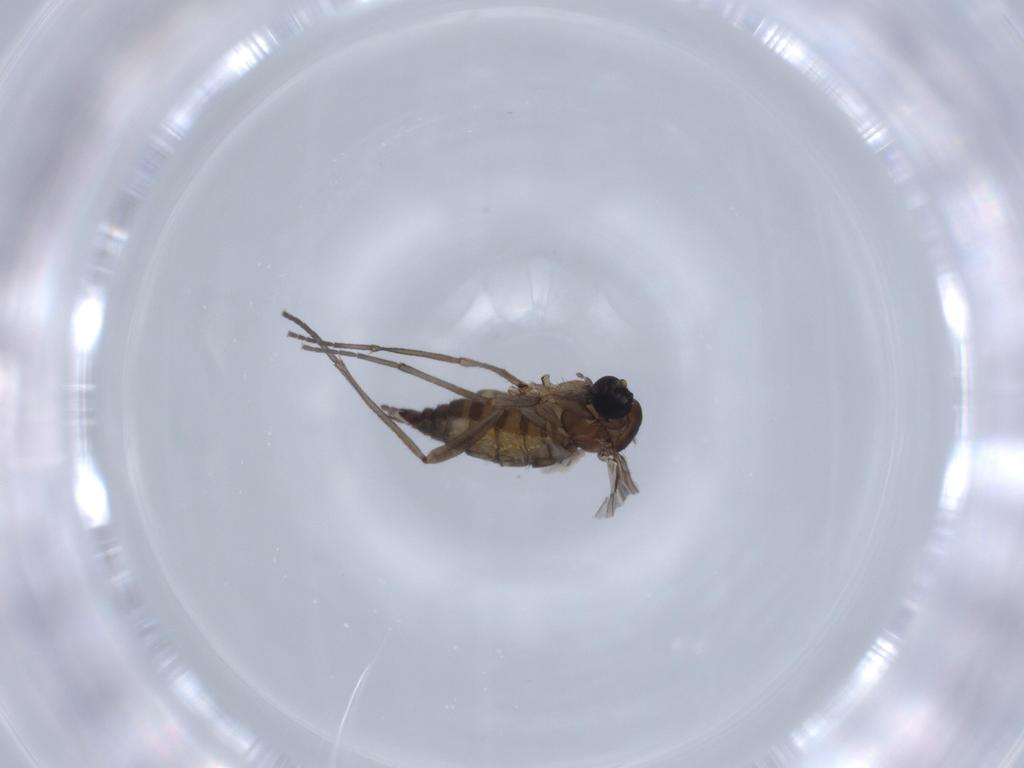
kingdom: Animalia
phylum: Arthropoda
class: Insecta
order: Diptera
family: Sciaridae
